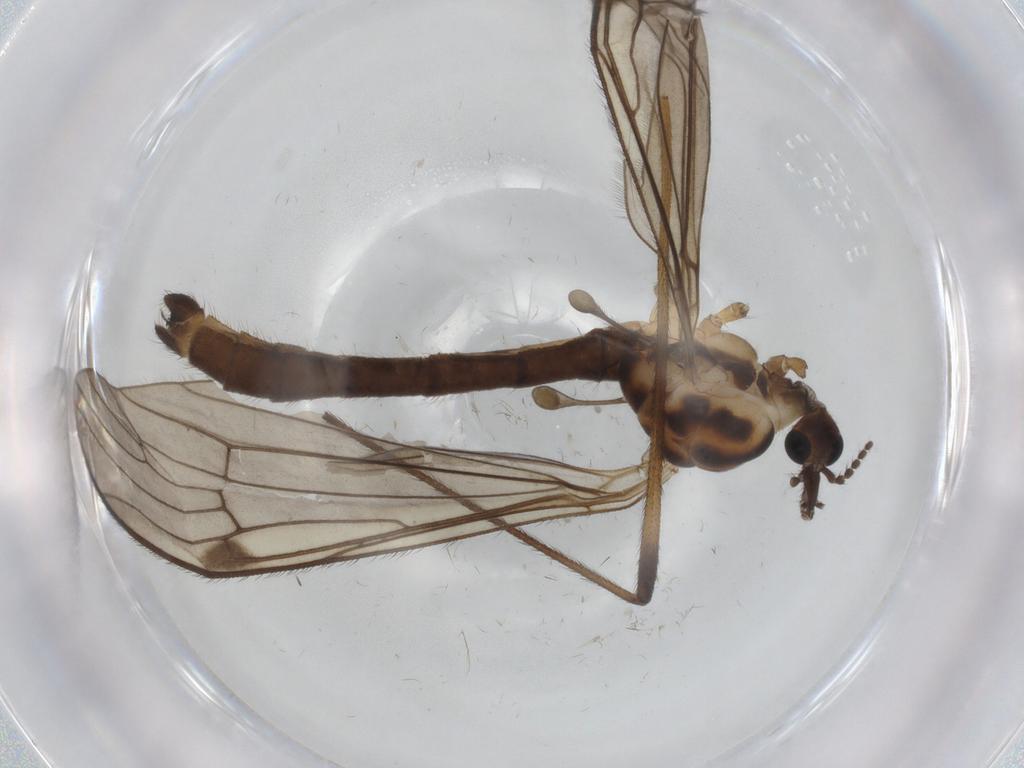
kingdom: Animalia
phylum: Arthropoda
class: Insecta
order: Diptera
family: Limoniidae
